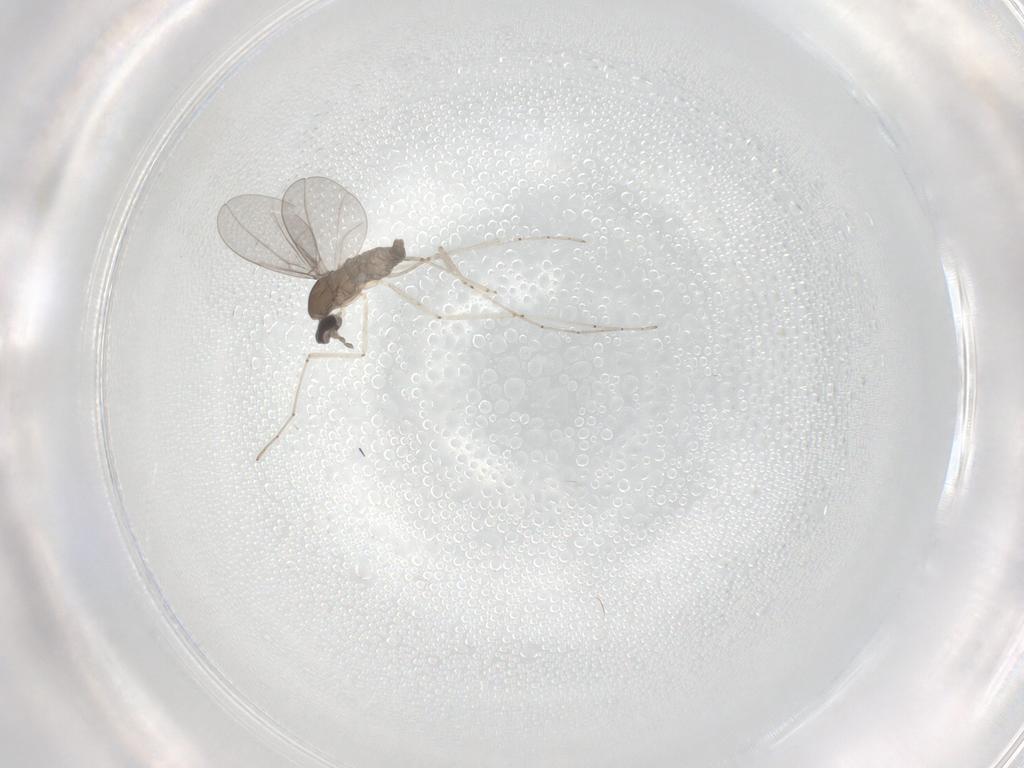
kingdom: Animalia
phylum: Arthropoda
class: Insecta
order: Diptera
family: Cecidomyiidae
